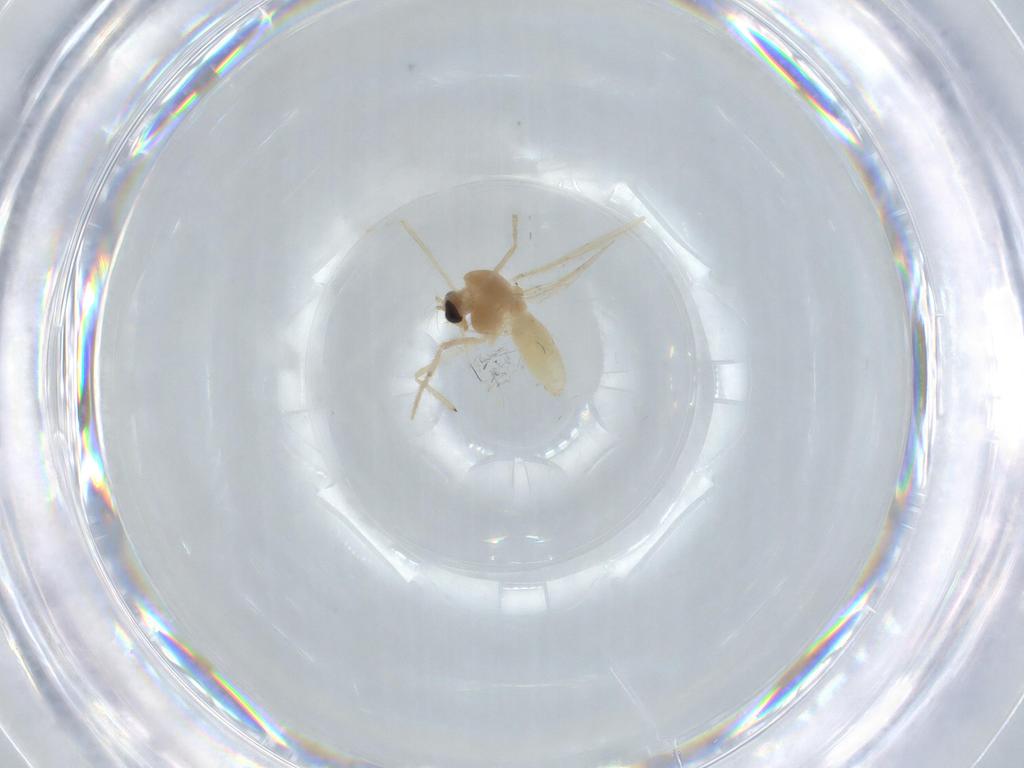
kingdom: Animalia
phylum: Arthropoda
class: Insecta
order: Diptera
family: Chironomidae
